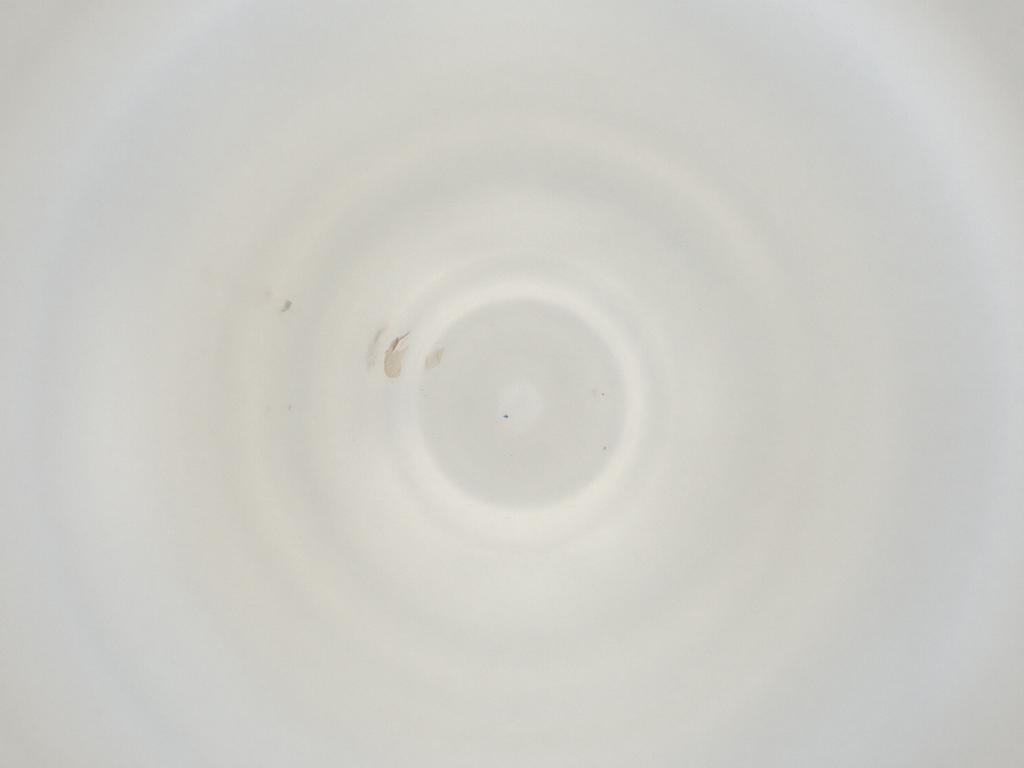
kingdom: Animalia
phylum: Arthropoda
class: Insecta
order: Diptera
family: Cecidomyiidae
